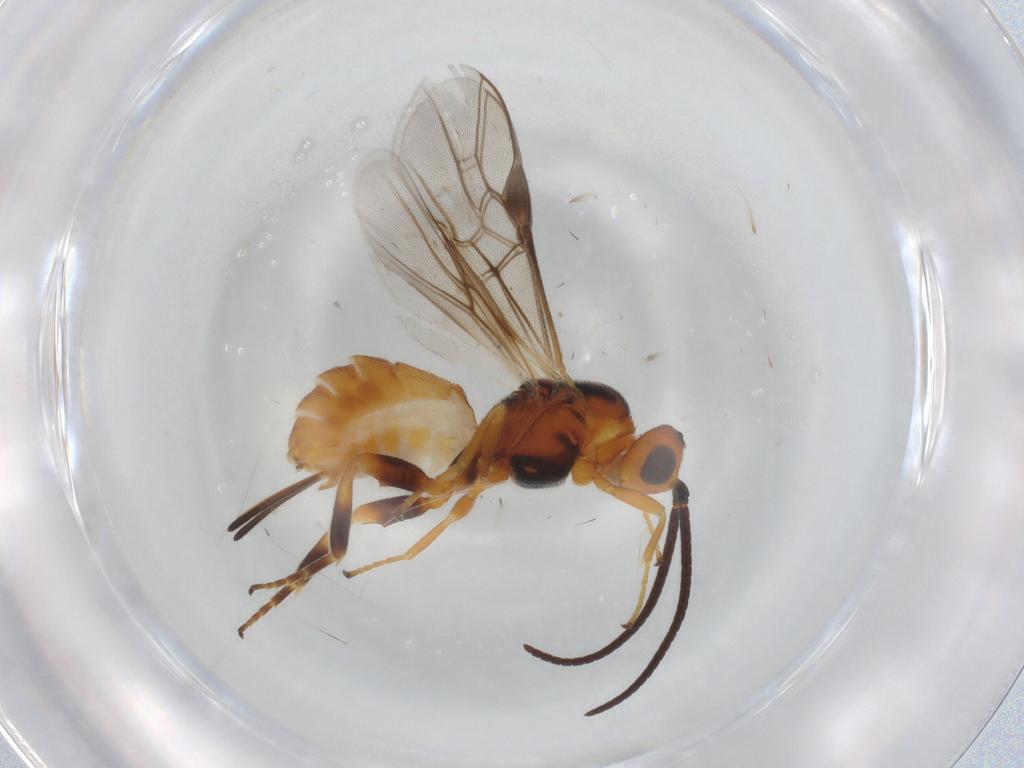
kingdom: Animalia
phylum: Arthropoda
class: Insecta
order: Hymenoptera
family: Braconidae
